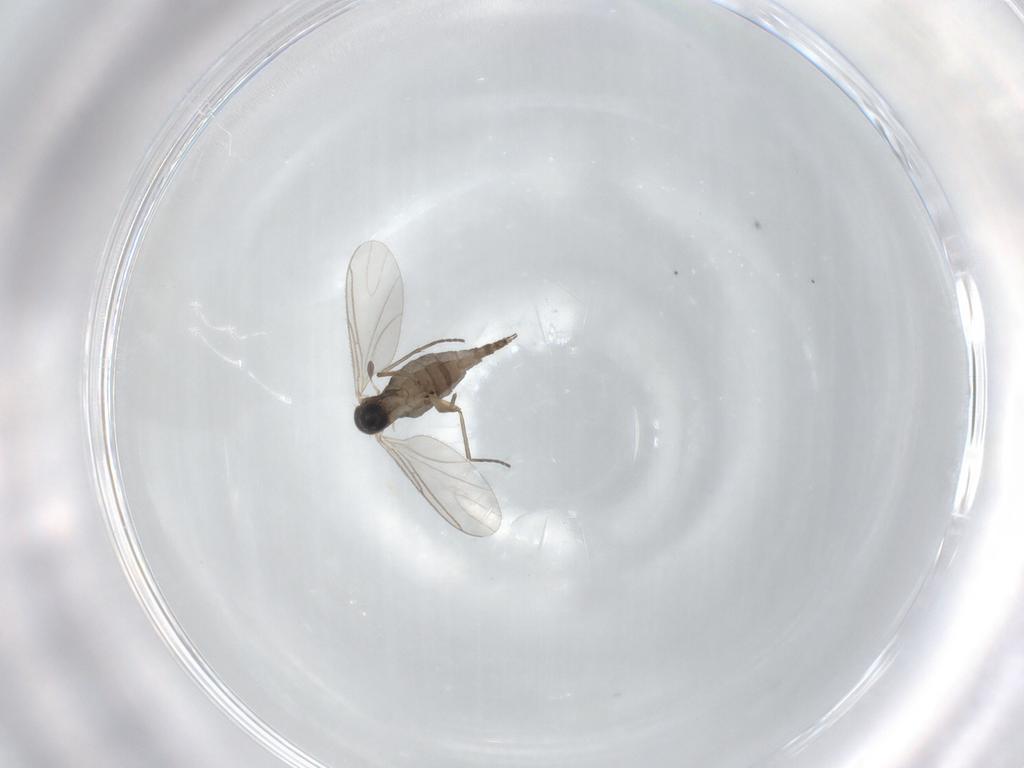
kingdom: Animalia
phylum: Arthropoda
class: Insecta
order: Diptera
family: Sciaridae
